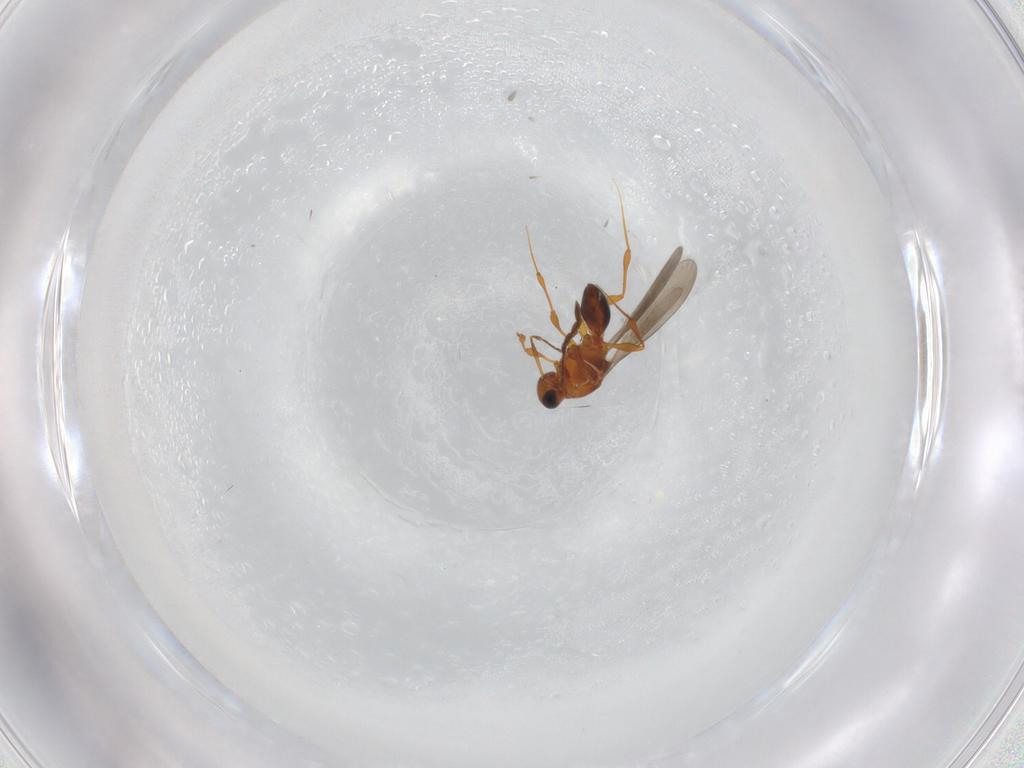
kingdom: Animalia
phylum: Arthropoda
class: Insecta
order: Hymenoptera
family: Platygastridae
